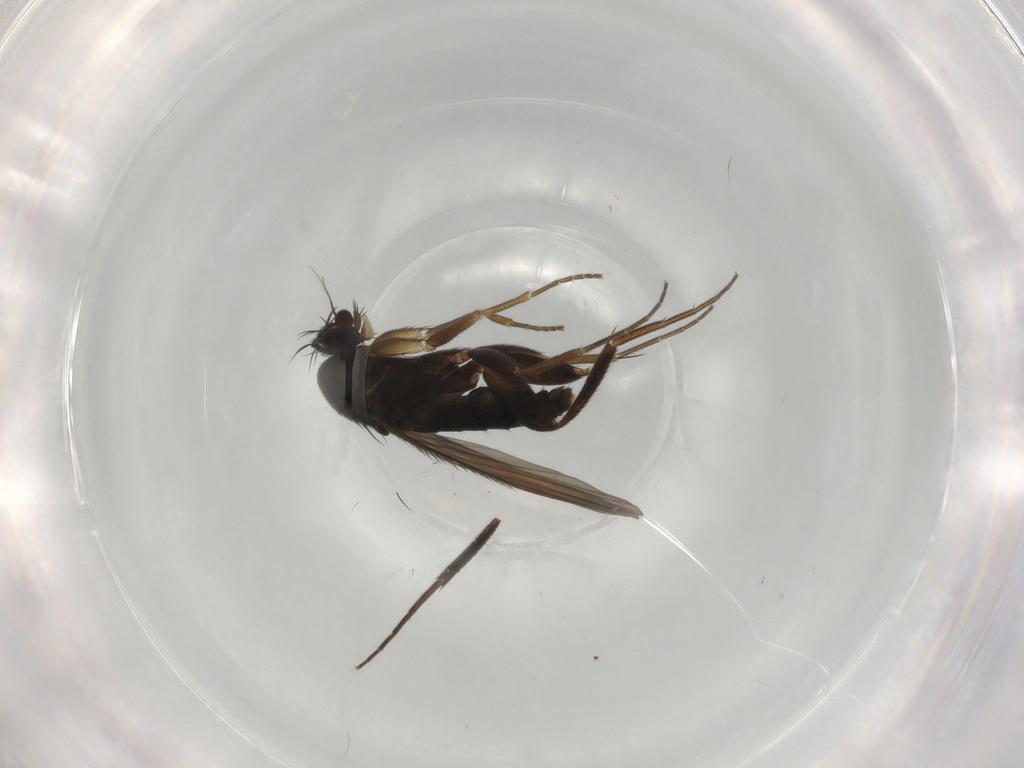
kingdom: Animalia
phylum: Arthropoda
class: Insecta
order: Diptera
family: Phoridae
